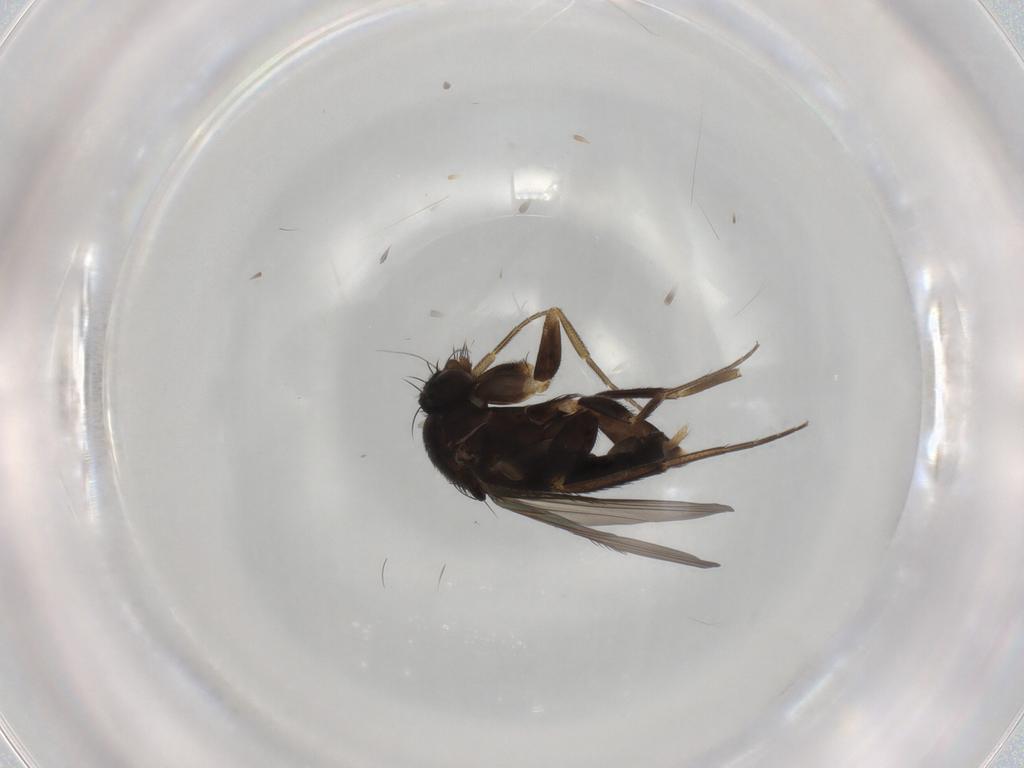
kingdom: Animalia
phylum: Arthropoda
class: Insecta
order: Diptera
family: Phoridae
